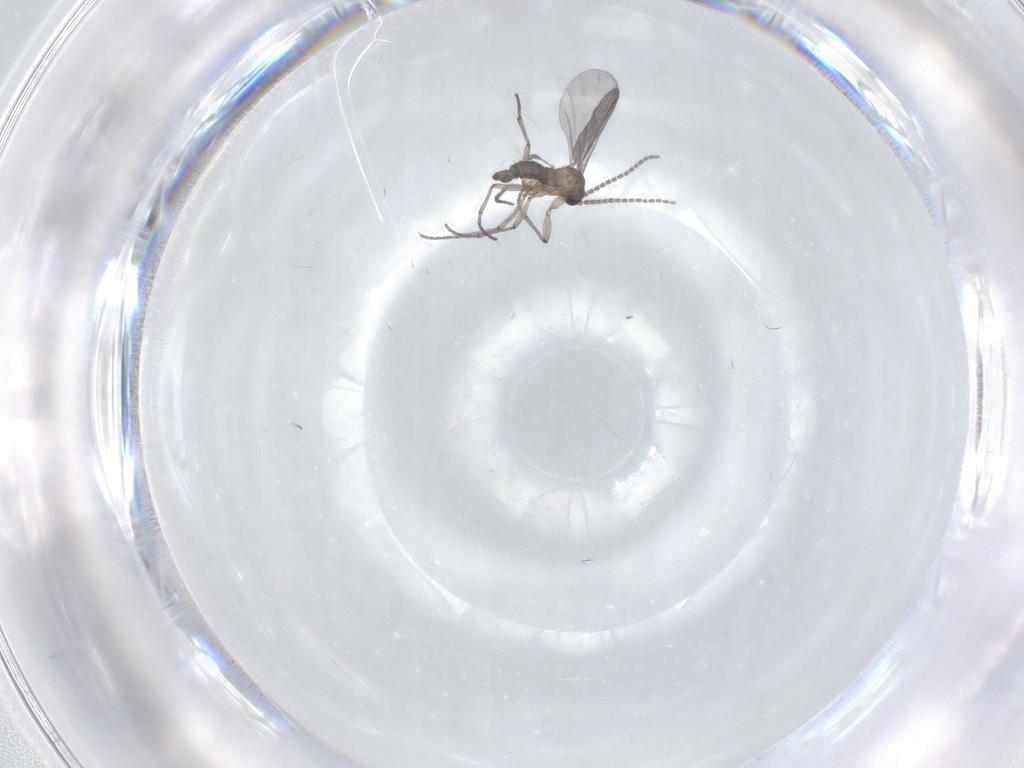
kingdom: Animalia
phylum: Arthropoda
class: Insecta
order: Diptera
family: Sciaridae
